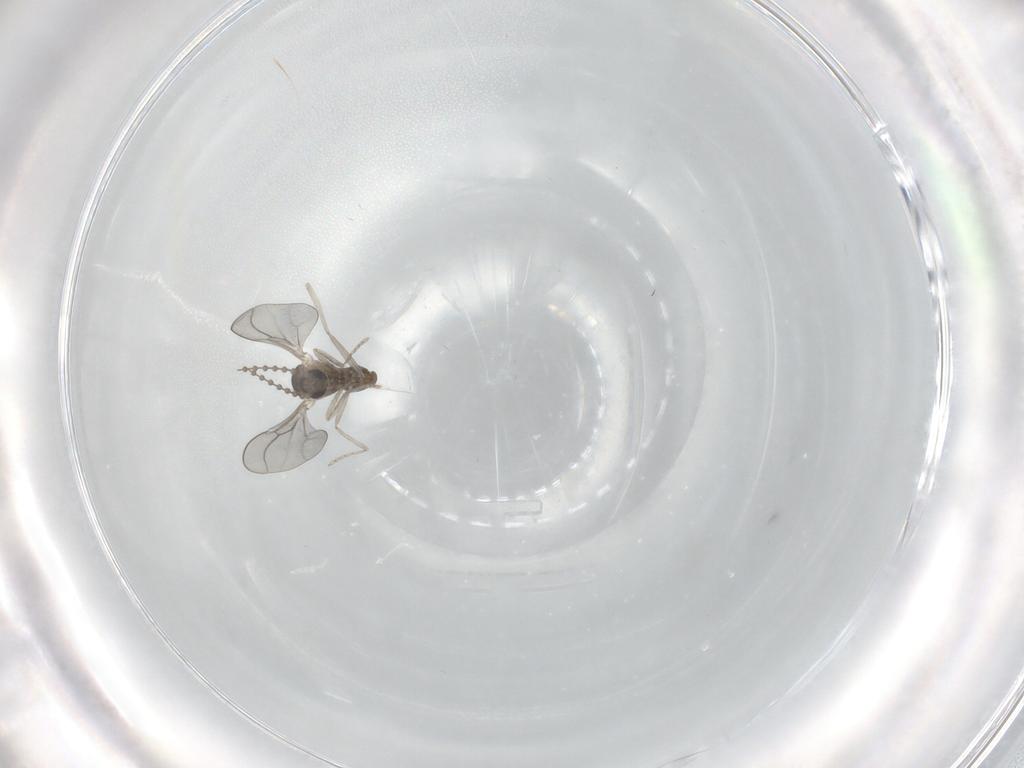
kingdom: Animalia
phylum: Arthropoda
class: Insecta
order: Diptera
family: Cecidomyiidae
